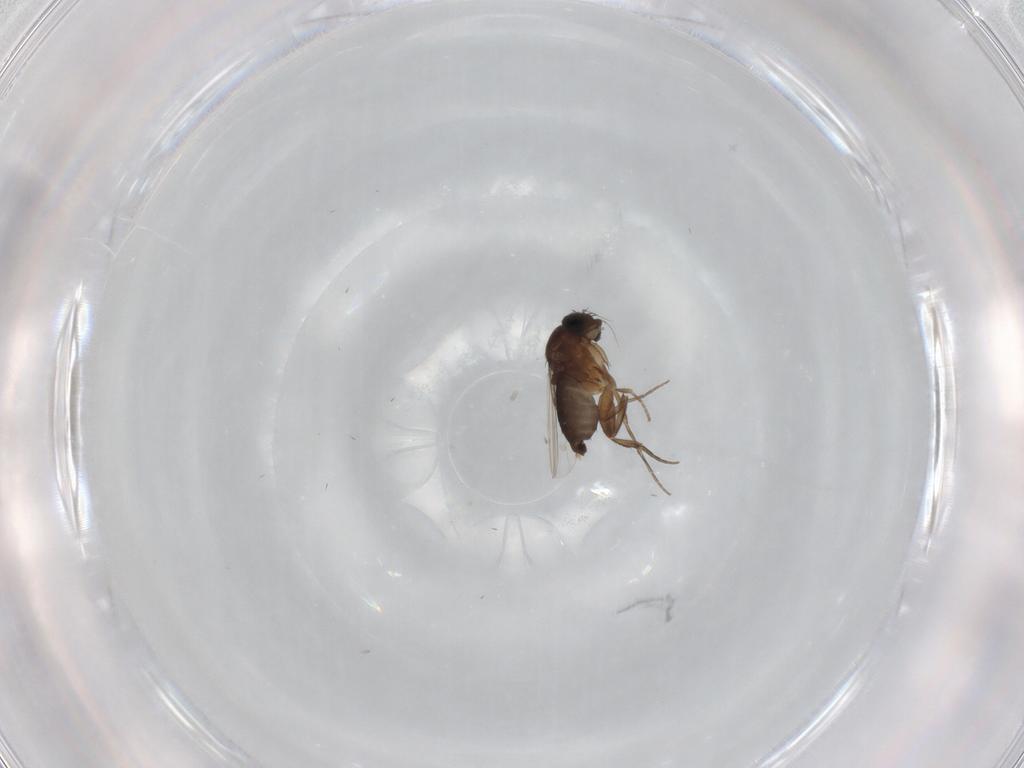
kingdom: Animalia
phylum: Arthropoda
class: Insecta
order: Diptera
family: Phoridae
